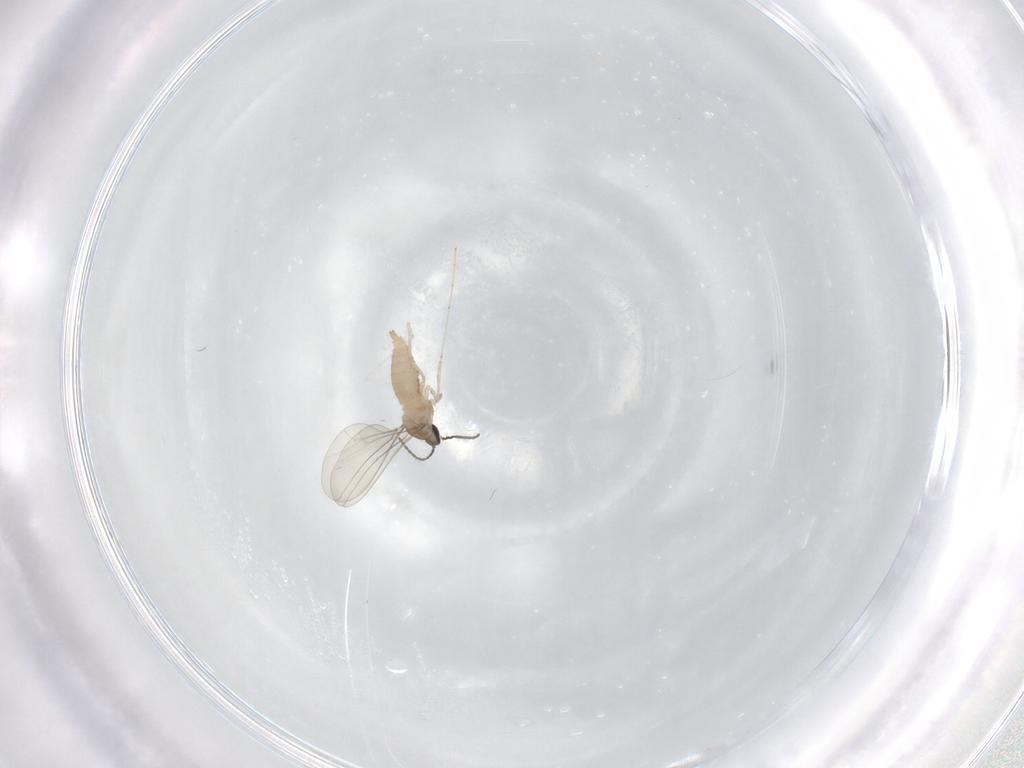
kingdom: Animalia
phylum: Arthropoda
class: Insecta
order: Diptera
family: Cecidomyiidae
